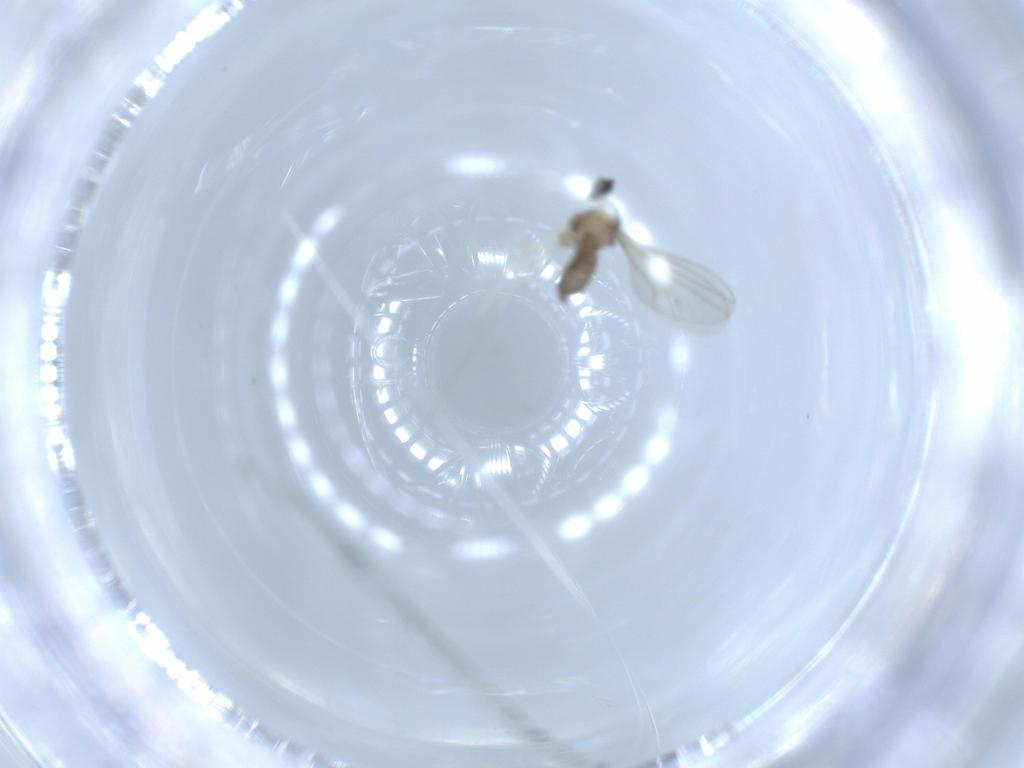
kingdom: Animalia
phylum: Arthropoda
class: Insecta
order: Diptera
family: Cecidomyiidae
